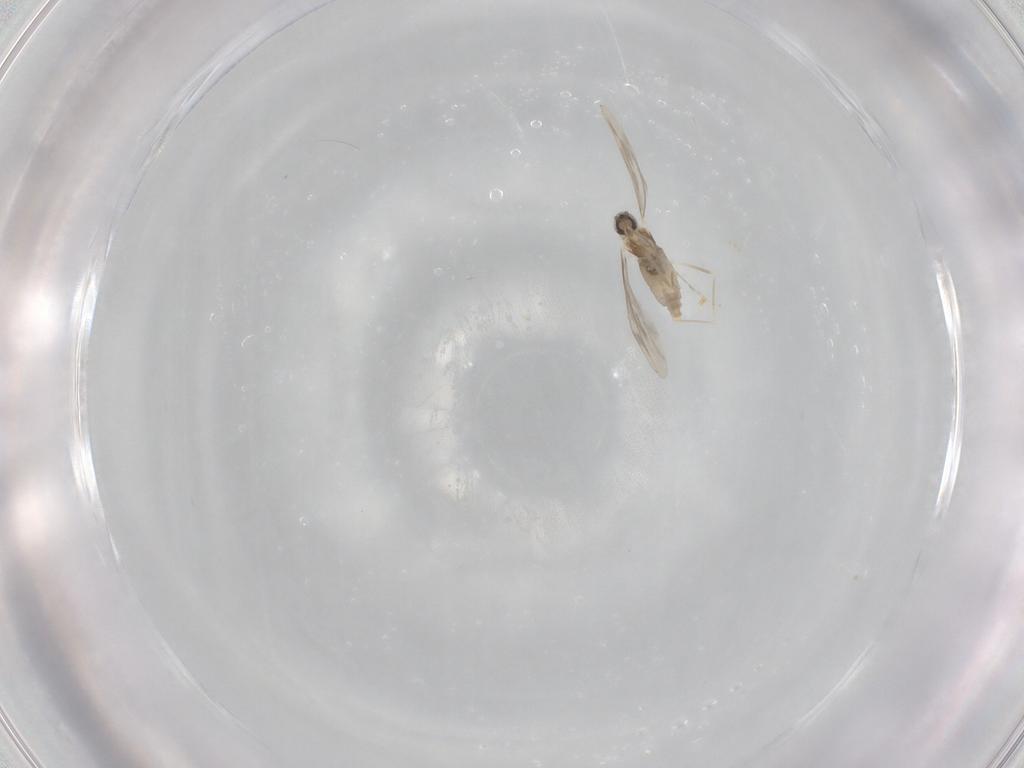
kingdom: Animalia
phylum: Arthropoda
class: Insecta
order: Diptera
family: Cecidomyiidae
